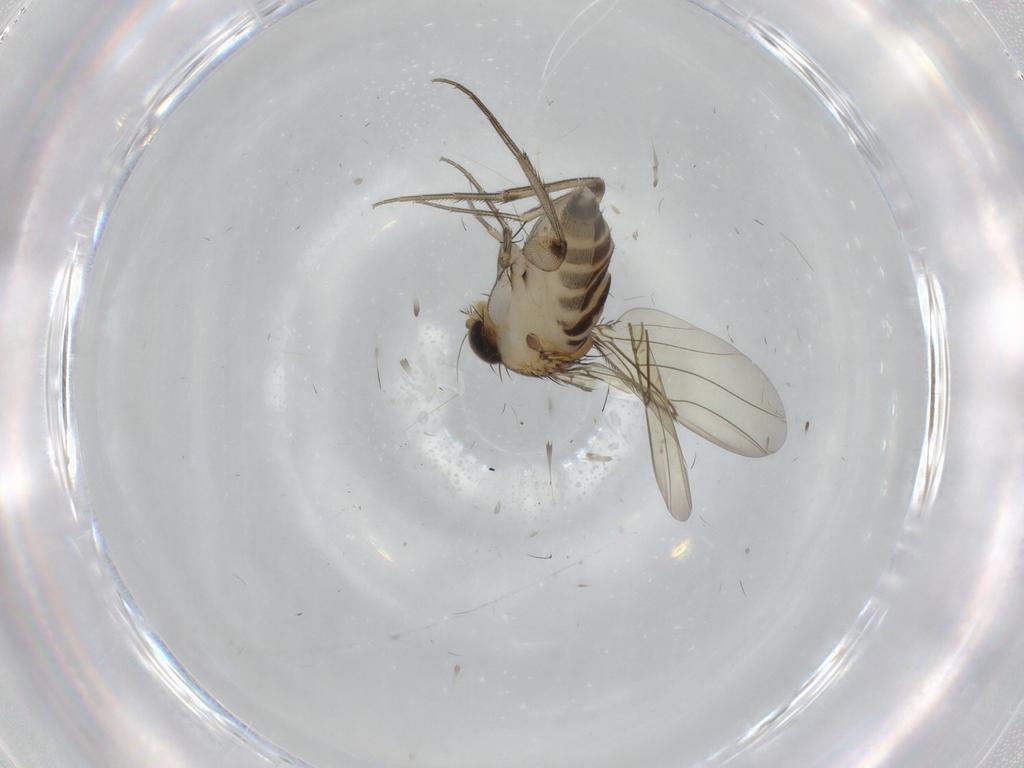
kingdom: Animalia
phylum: Arthropoda
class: Insecta
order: Diptera
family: Phoridae
